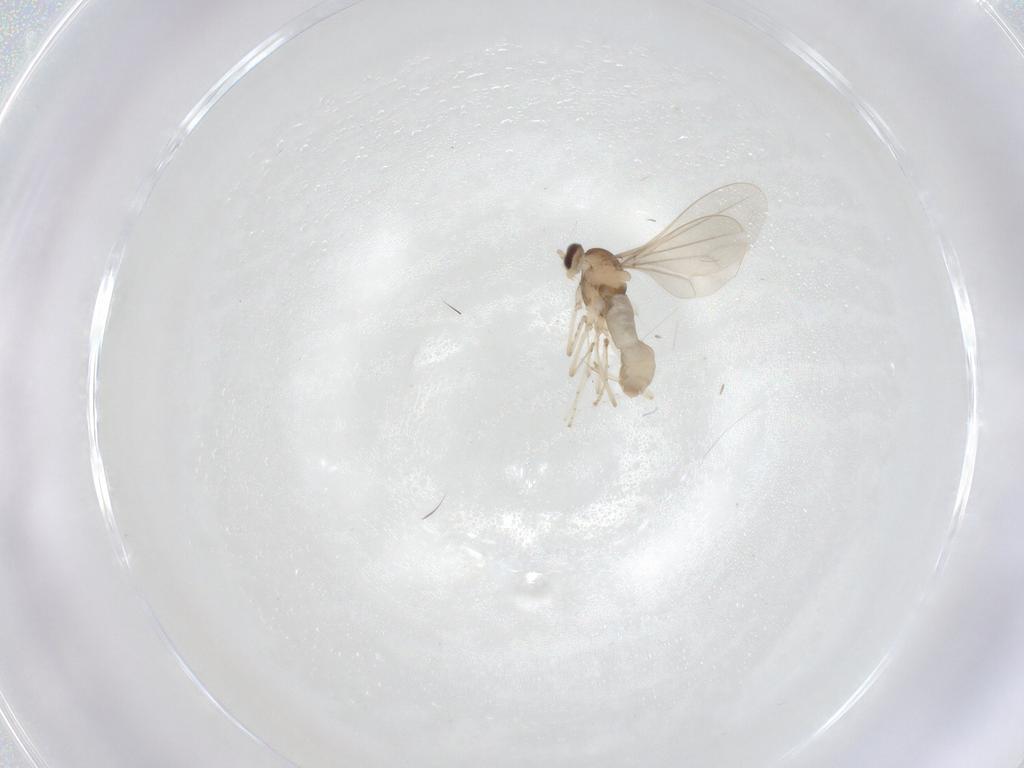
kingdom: Animalia
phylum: Arthropoda
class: Insecta
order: Diptera
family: Cecidomyiidae
